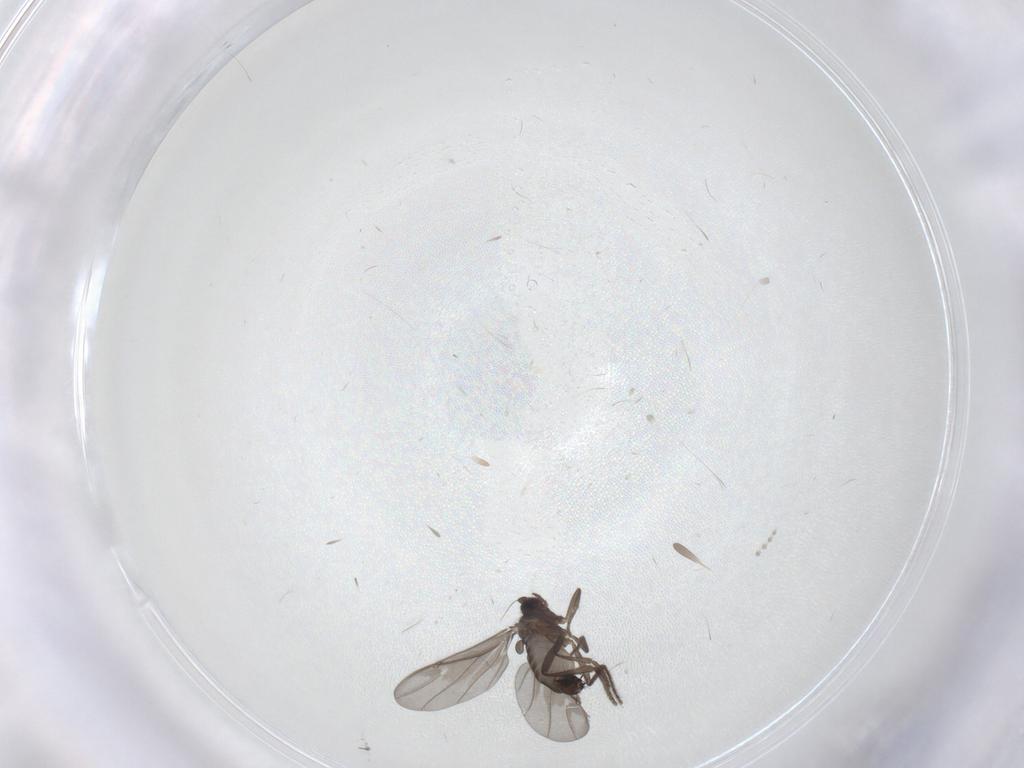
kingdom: Animalia
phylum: Arthropoda
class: Insecta
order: Diptera
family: Phoridae
